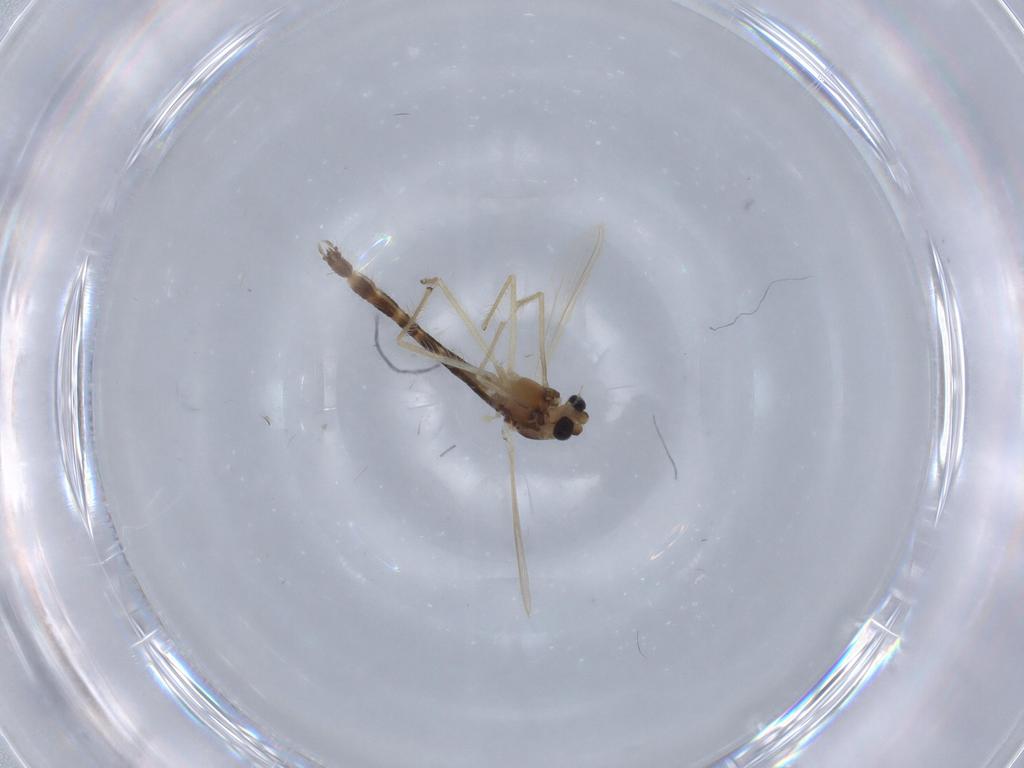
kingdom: Animalia
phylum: Arthropoda
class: Insecta
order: Diptera
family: Chironomidae
